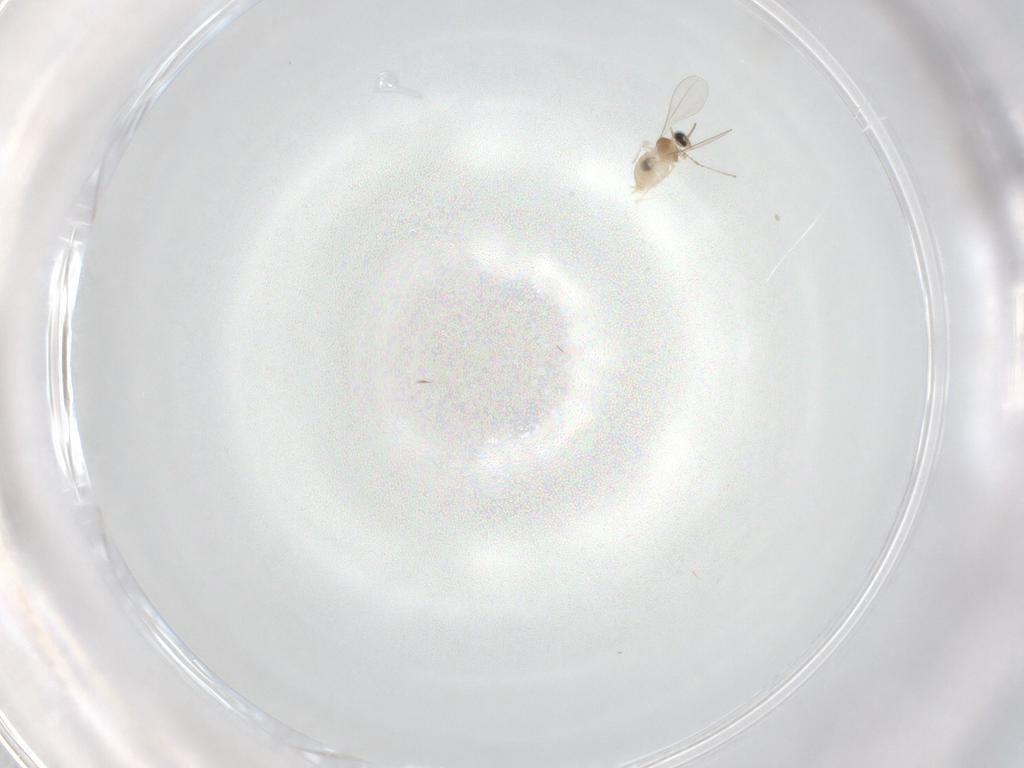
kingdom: Animalia
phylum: Arthropoda
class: Insecta
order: Diptera
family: Cecidomyiidae
